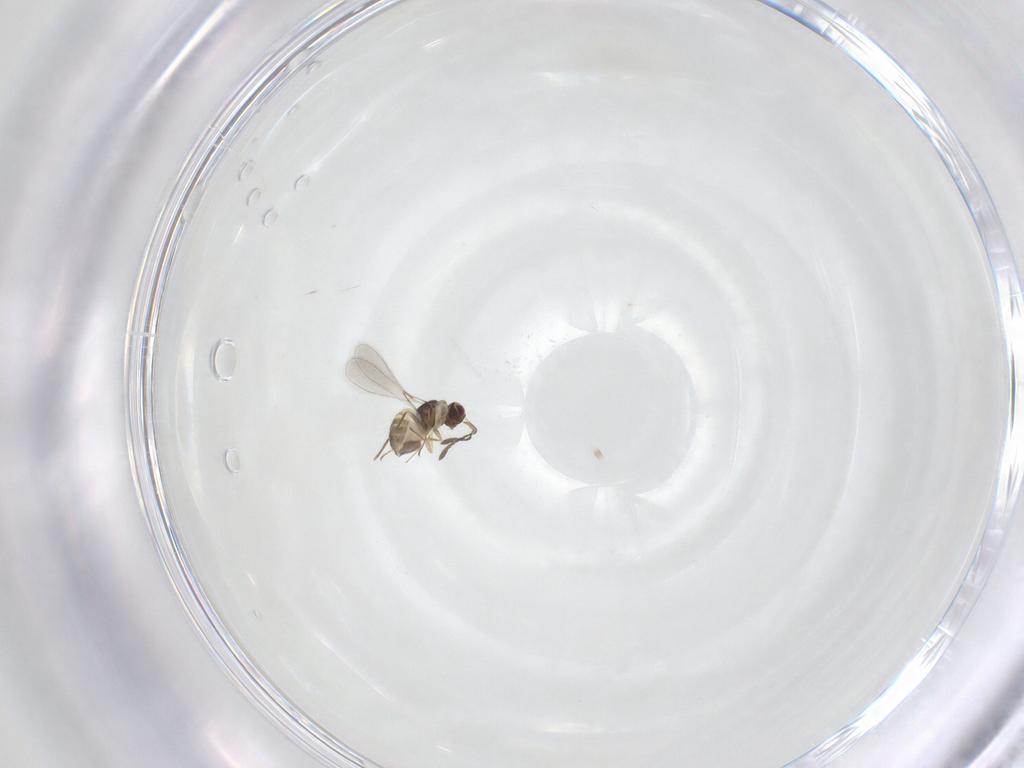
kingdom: Animalia
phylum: Arthropoda
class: Insecta
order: Hymenoptera
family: Mymaridae
